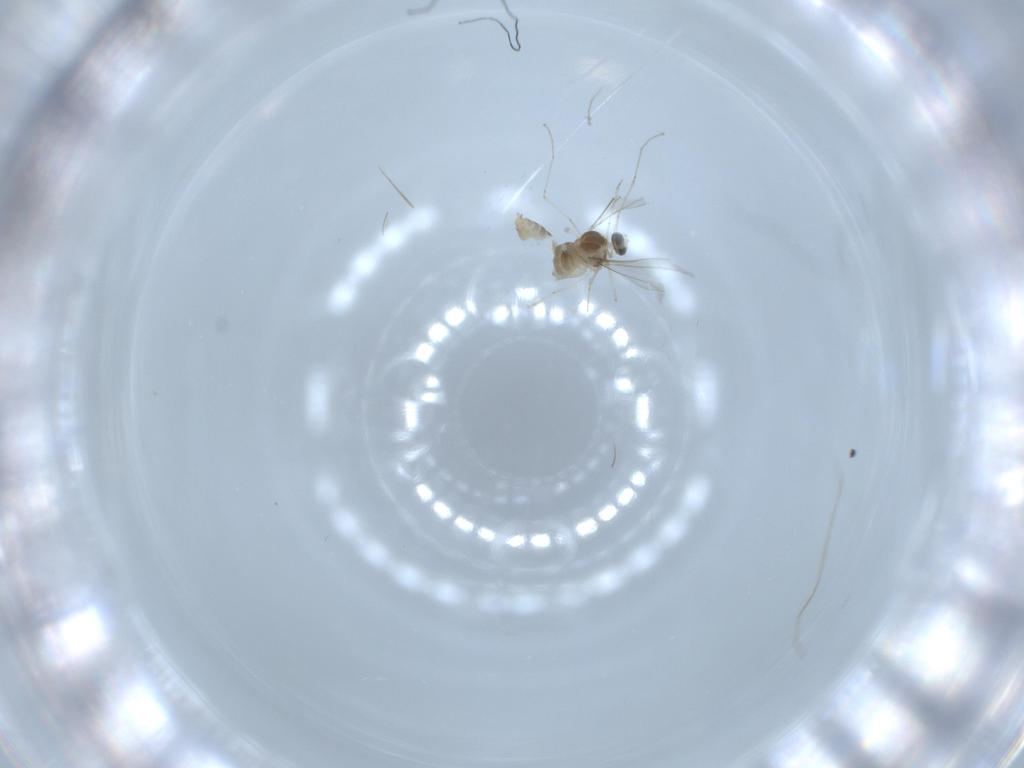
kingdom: Animalia
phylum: Arthropoda
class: Insecta
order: Diptera
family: Cecidomyiidae
